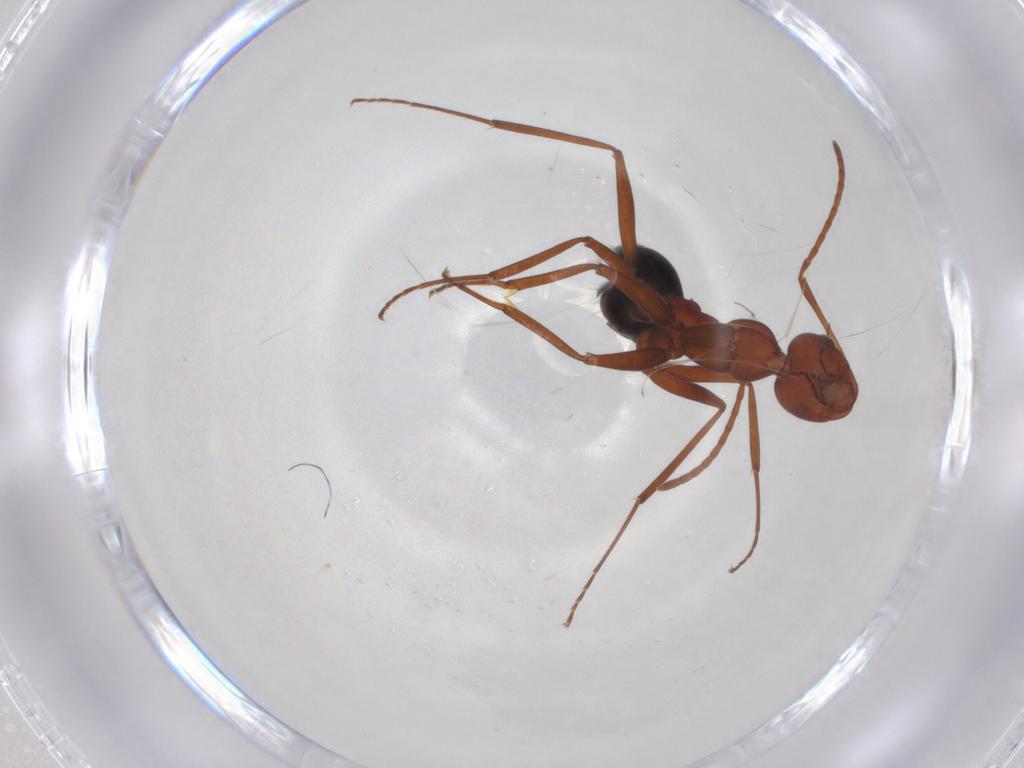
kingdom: Animalia
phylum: Arthropoda
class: Insecta
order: Hymenoptera
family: Formicidae
